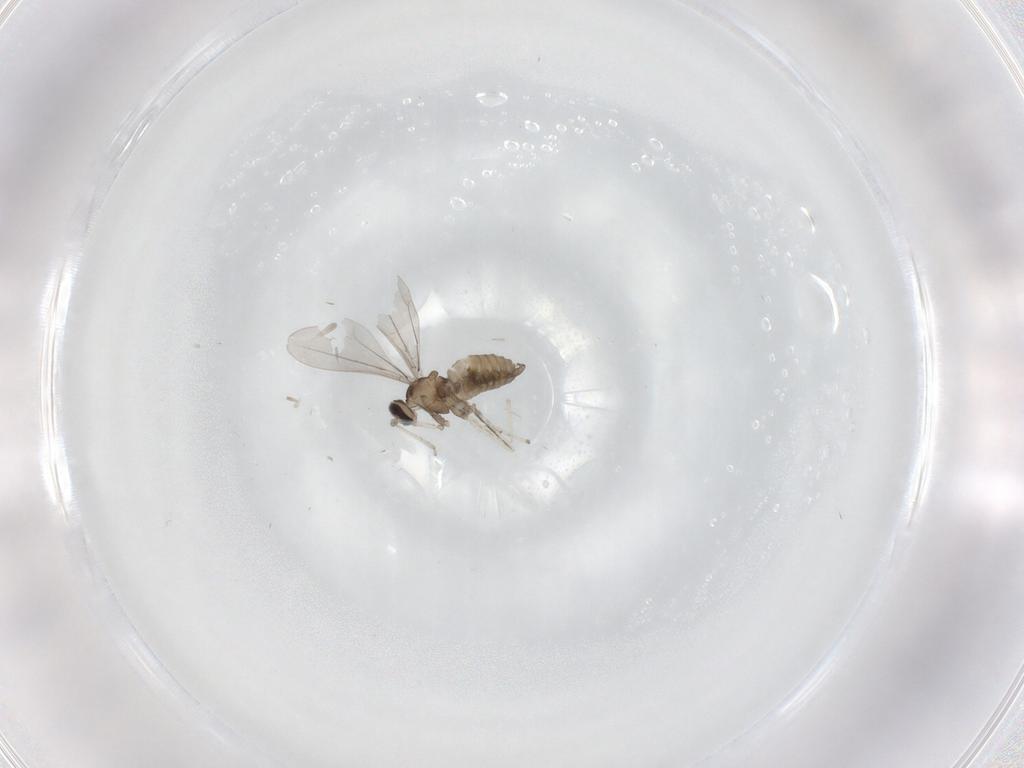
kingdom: Animalia
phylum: Arthropoda
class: Insecta
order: Diptera
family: Cecidomyiidae
